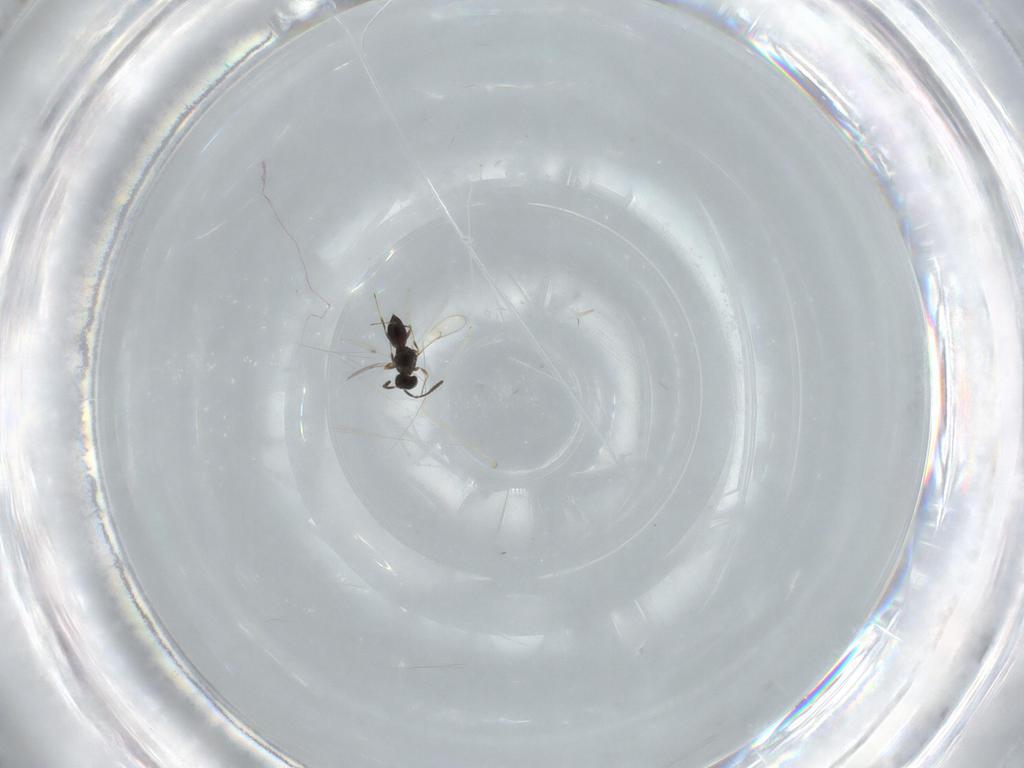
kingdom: Animalia
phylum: Arthropoda
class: Insecta
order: Hymenoptera
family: Scelionidae
